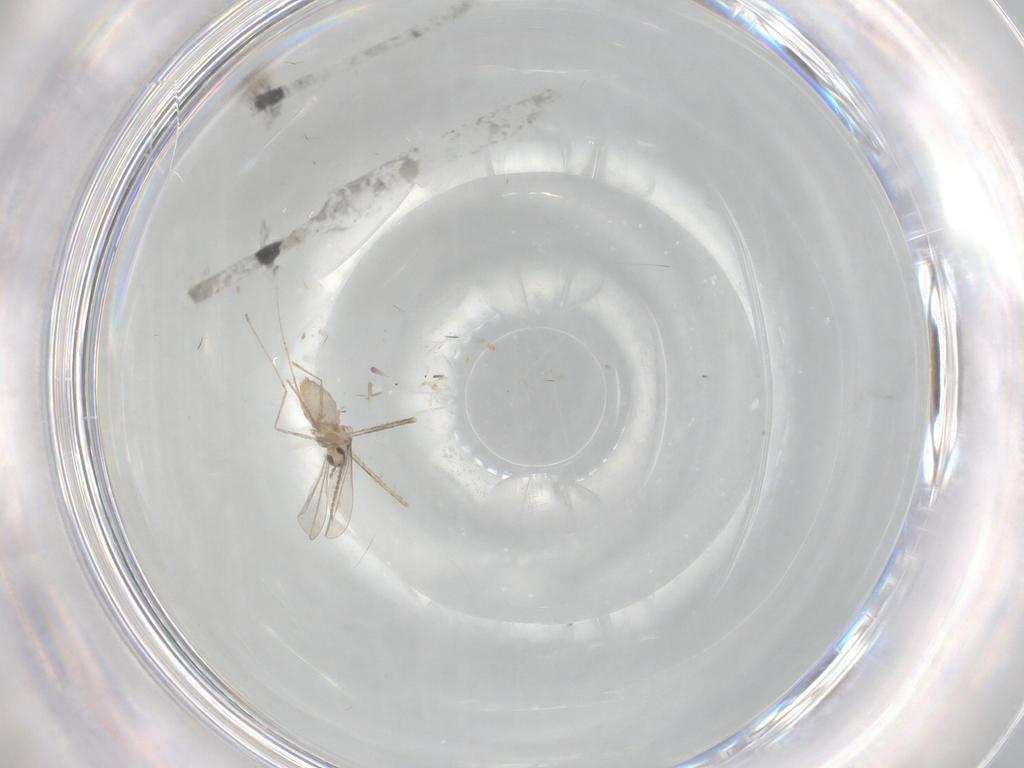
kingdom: Animalia
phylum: Arthropoda
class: Insecta
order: Diptera
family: Cecidomyiidae
